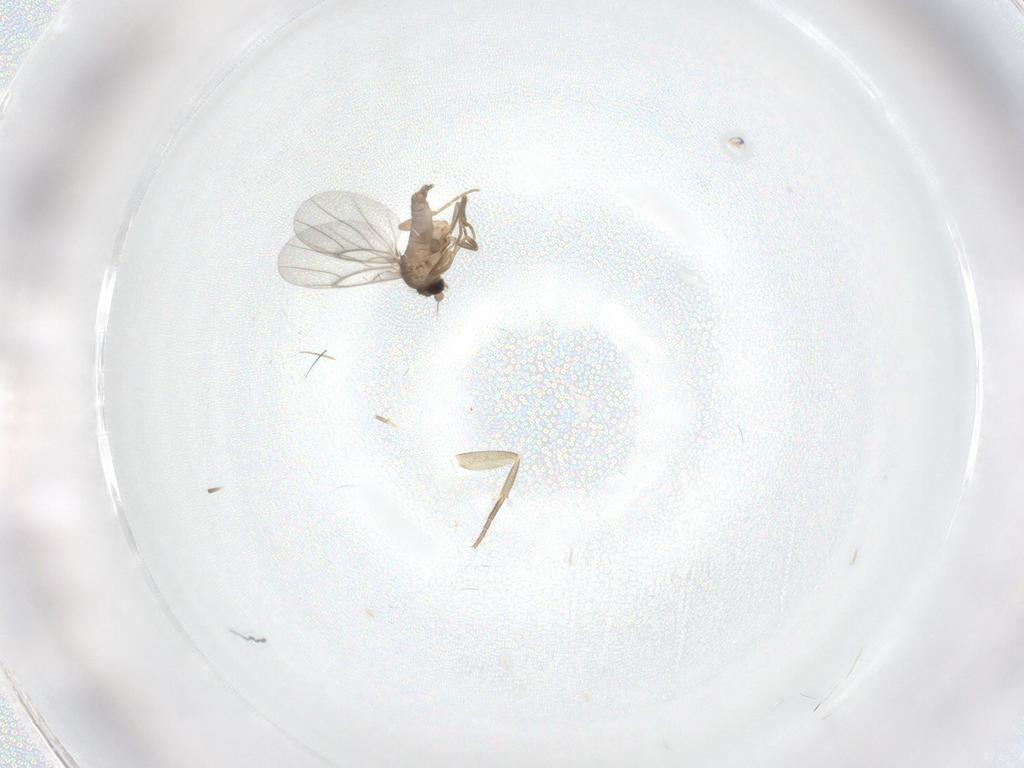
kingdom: Animalia
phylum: Arthropoda
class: Insecta
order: Diptera
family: Phoridae
